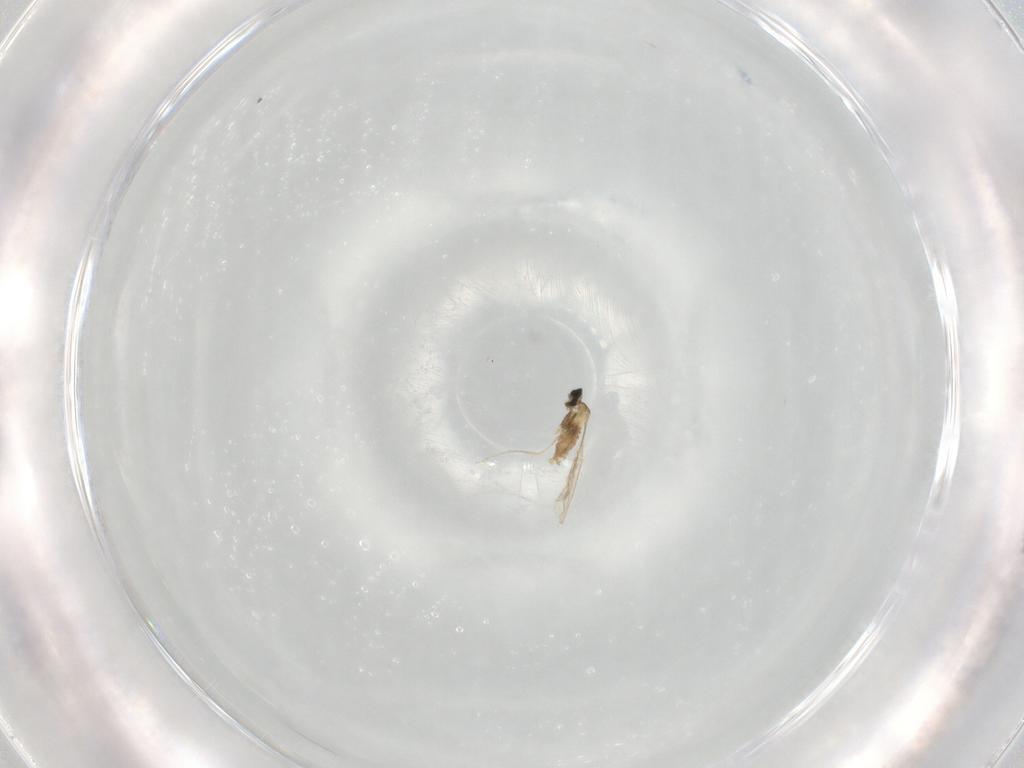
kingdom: Animalia
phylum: Arthropoda
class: Insecta
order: Diptera
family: Cecidomyiidae
